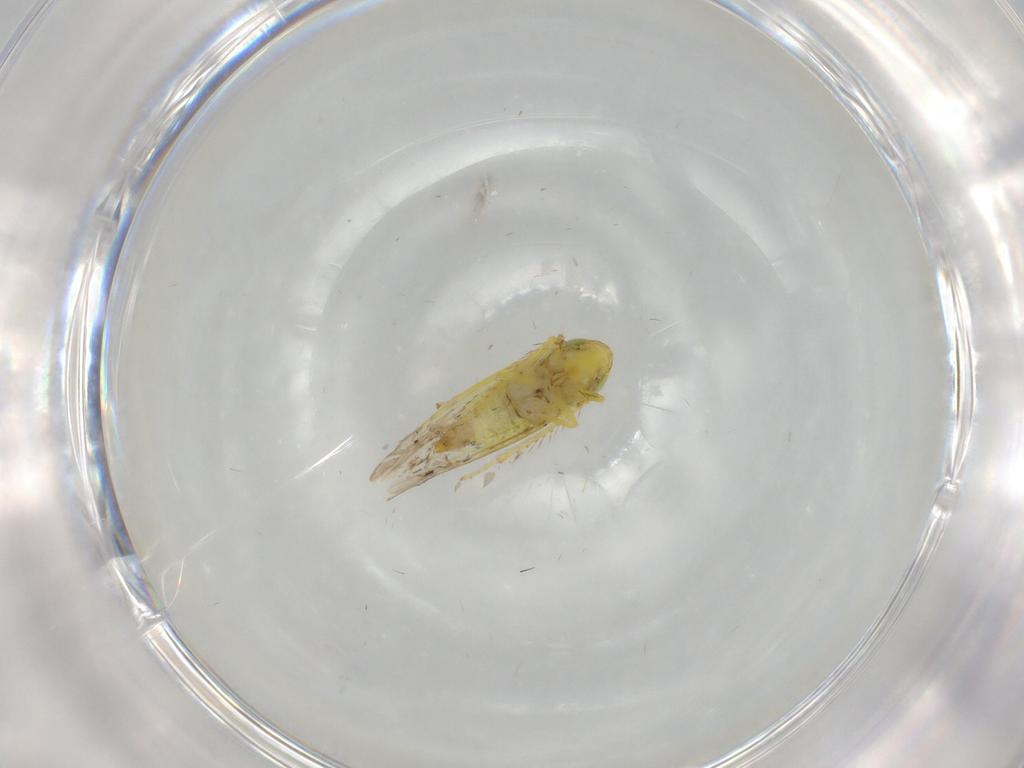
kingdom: Animalia
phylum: Arthropoda
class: Insecta
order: Hemiptera
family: Cicadellidae
